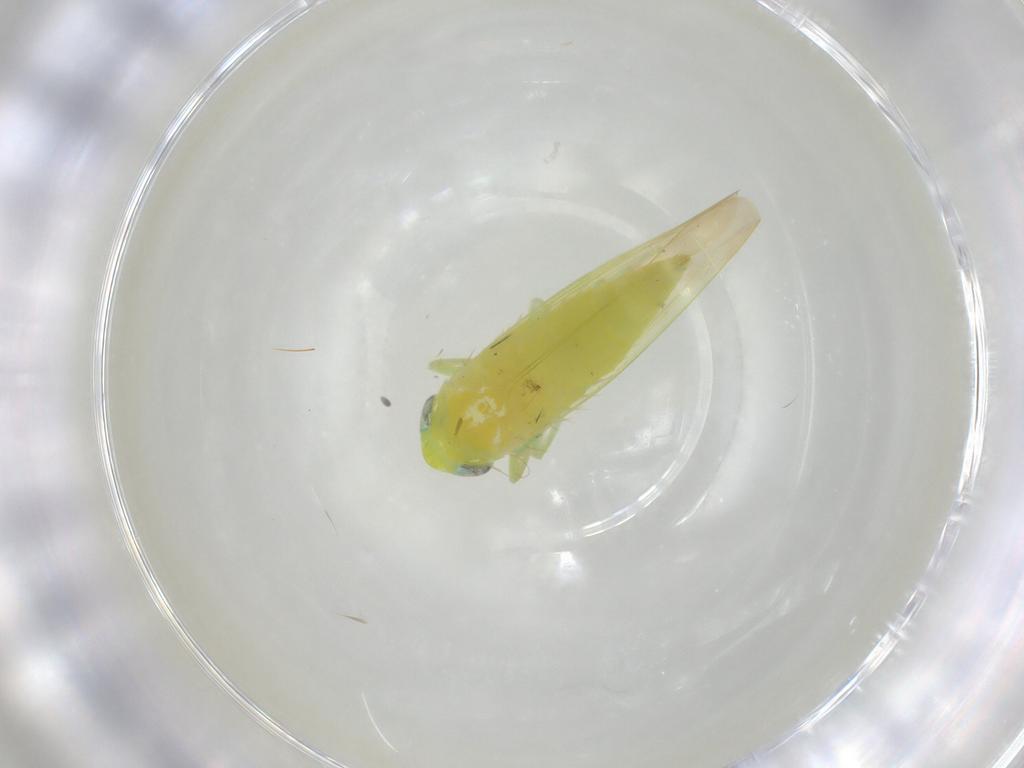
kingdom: Animalia
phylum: Arthropoda
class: Insecta
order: Hemiptera
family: Cicadellidae
